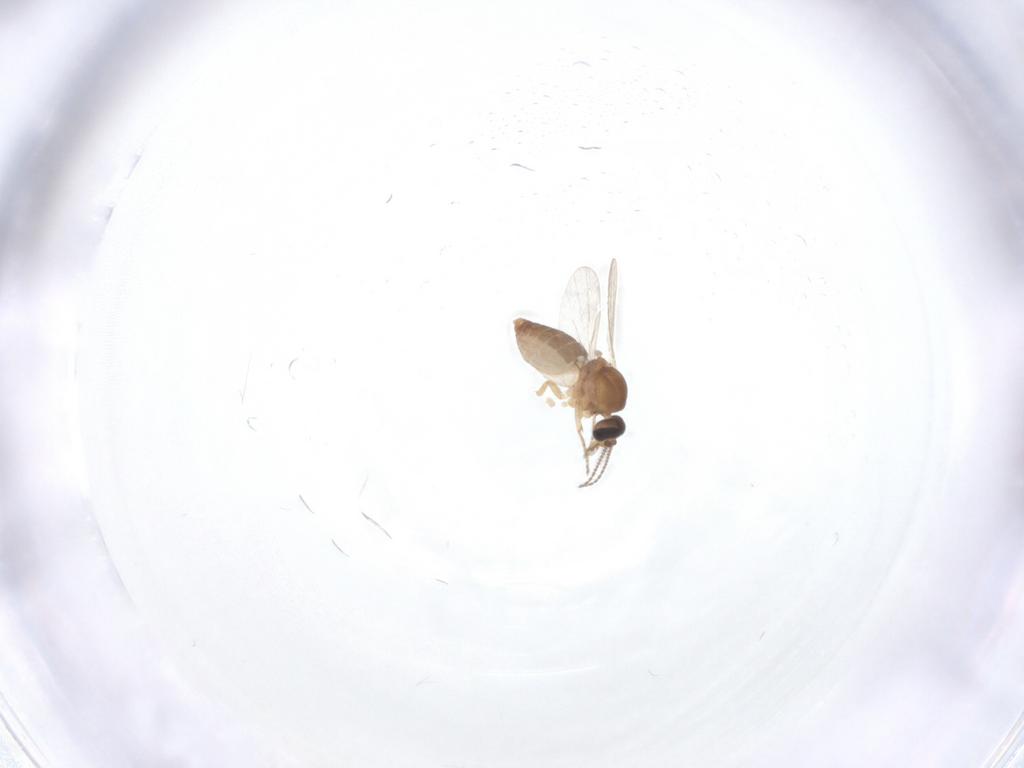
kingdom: Animalia
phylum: Arthropoda
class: Insecta
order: Diptera
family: Ceratopogonidae
